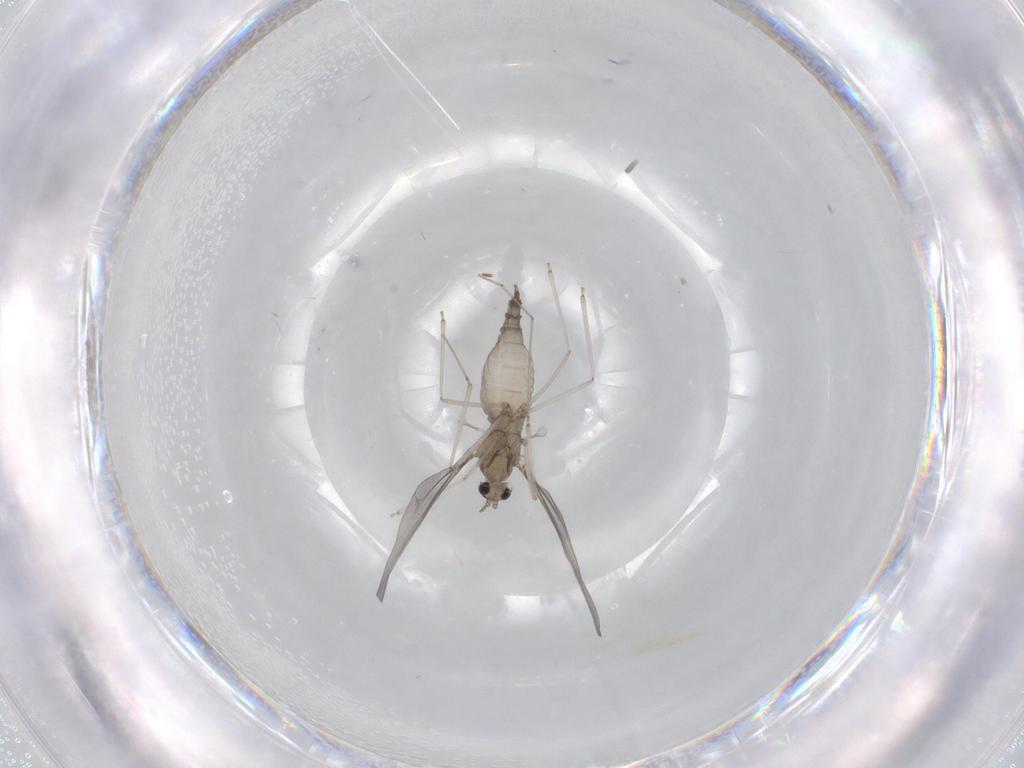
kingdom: Animalia
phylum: Arthropoda
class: Insecta
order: Diptera
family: Cecidomyiidae
